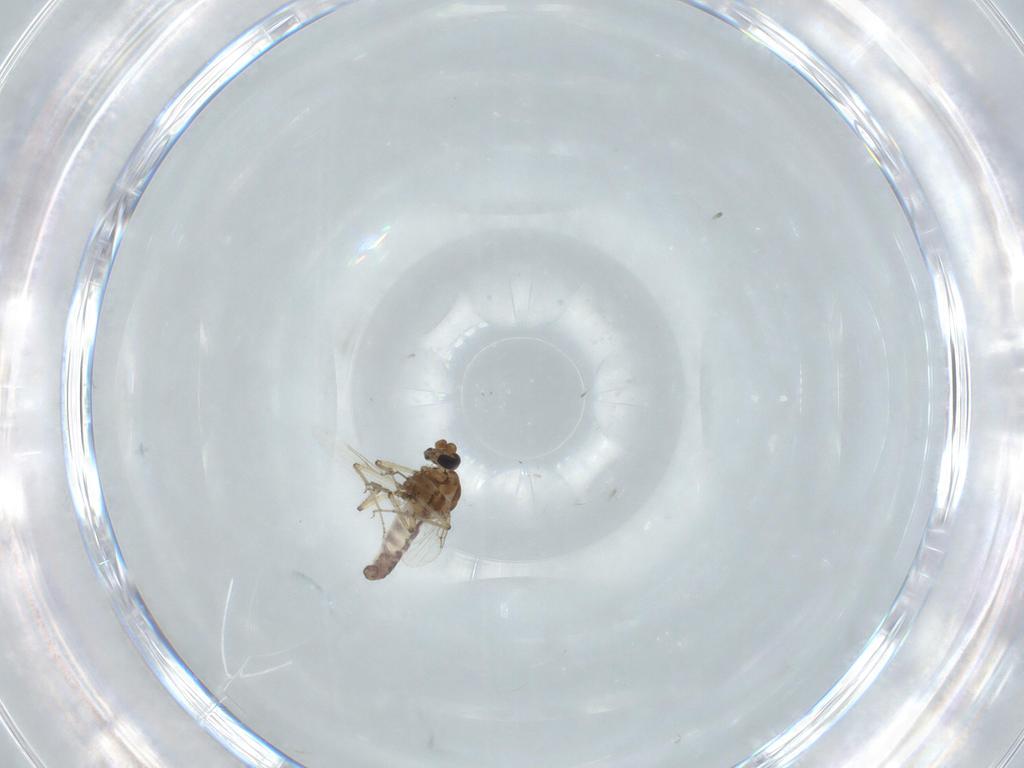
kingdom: Animalia
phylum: Arthropoda
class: Insecta
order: Diptera
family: Ceratopogonidae
